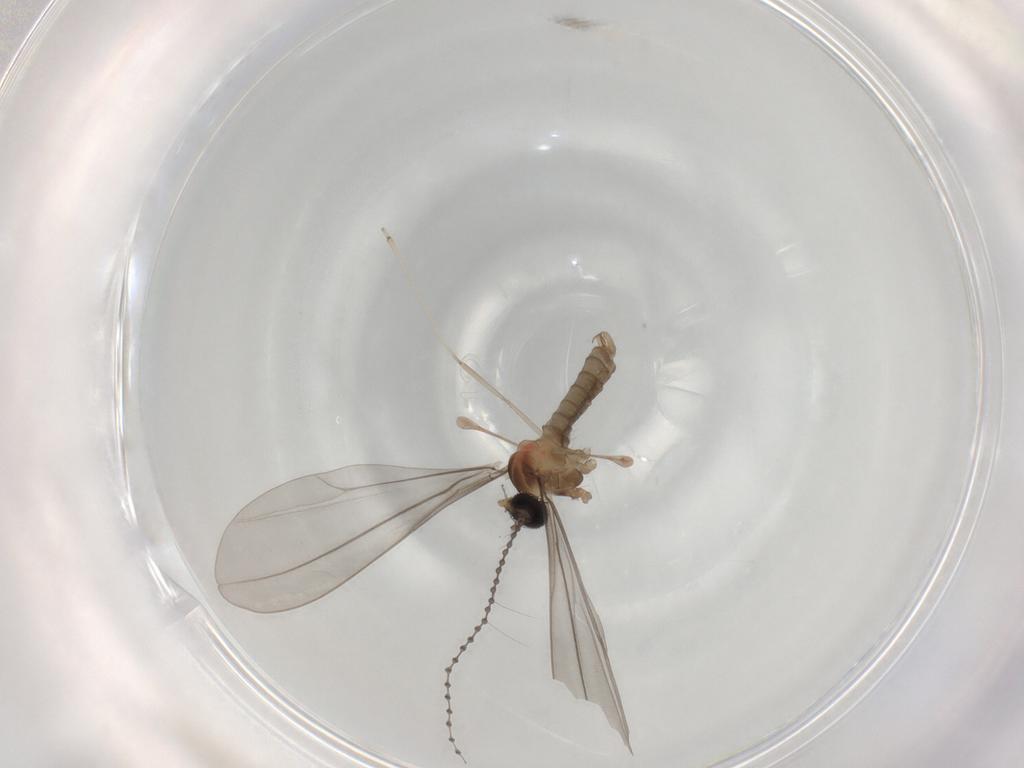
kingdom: Animalia
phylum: Arthropoda
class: Insecta
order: Diptera
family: Cecidomyiidae
